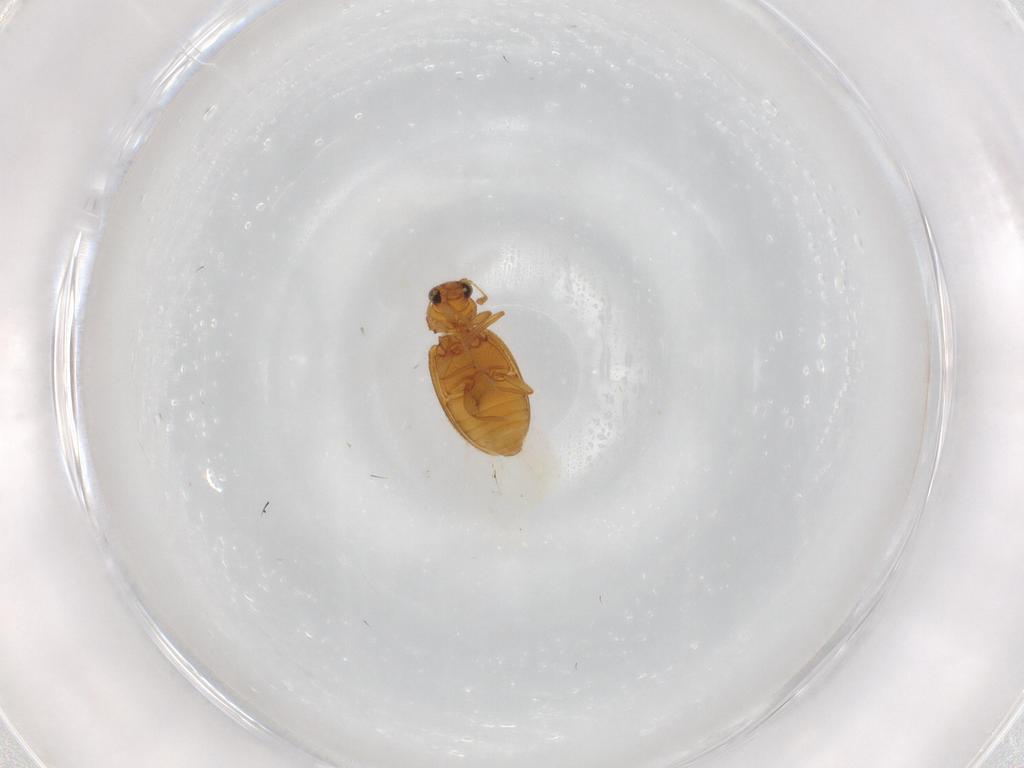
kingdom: Animalia
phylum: Arthropoda
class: Insecta
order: Coleoptera
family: Latridiidae
